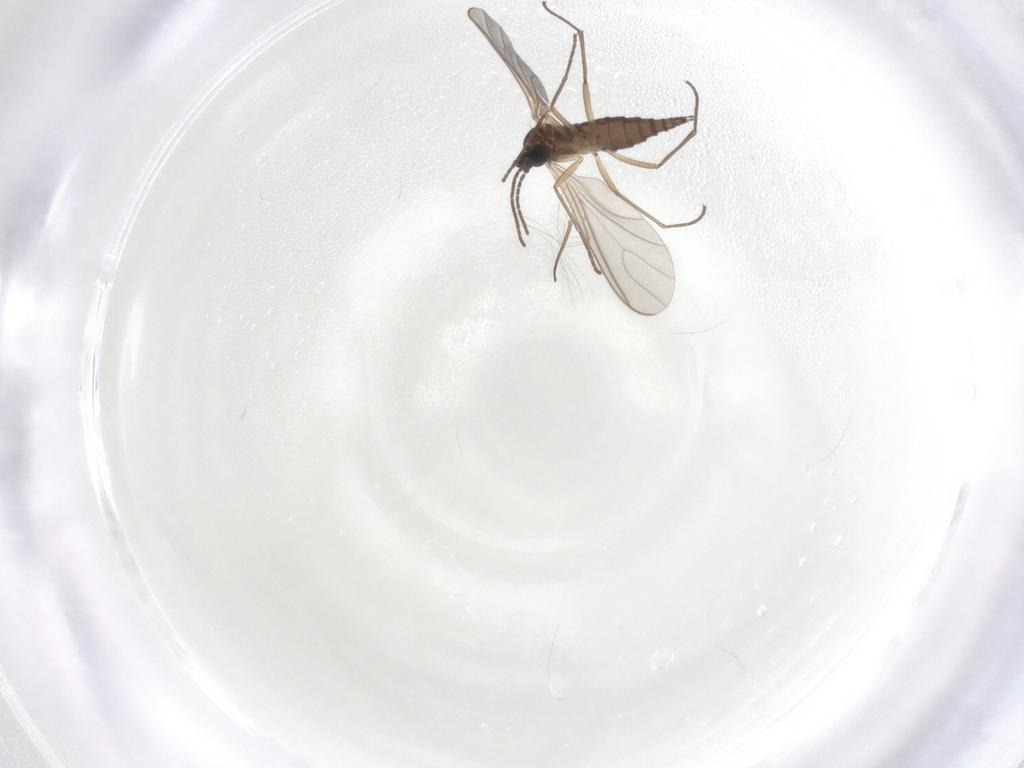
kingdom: Animalia
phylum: Arthropoda
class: Insecta
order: Diptera
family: Sciaridae
